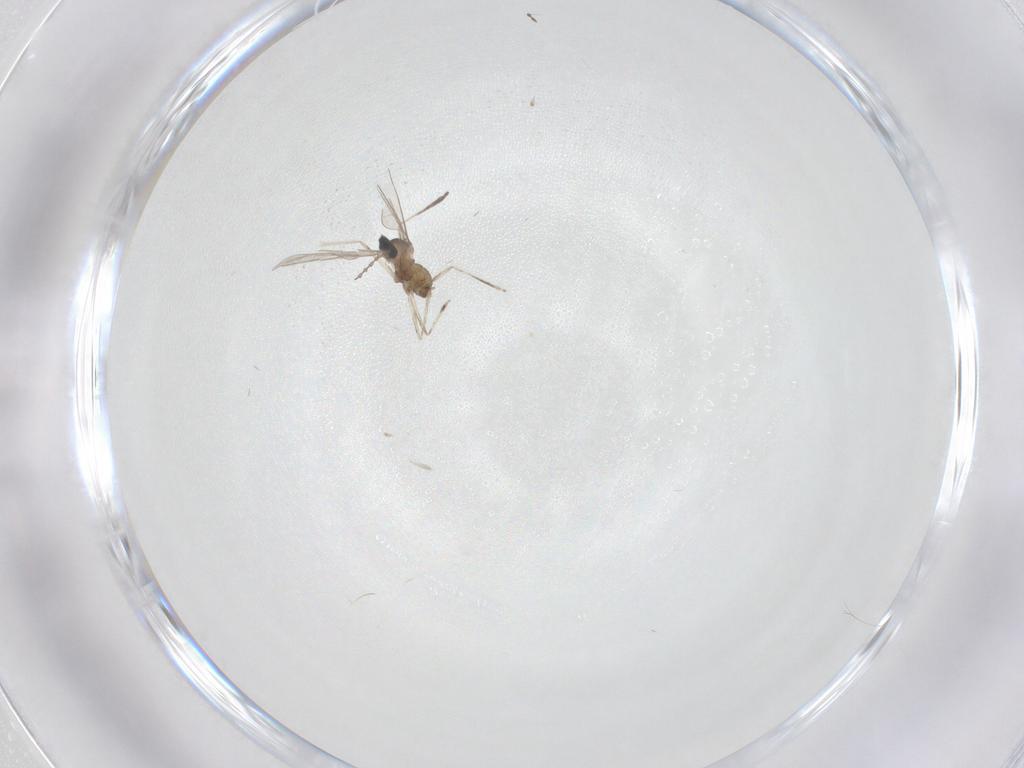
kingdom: Animalia
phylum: Arthropoda
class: Insecta
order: Diptera
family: Cecidomyiidae
